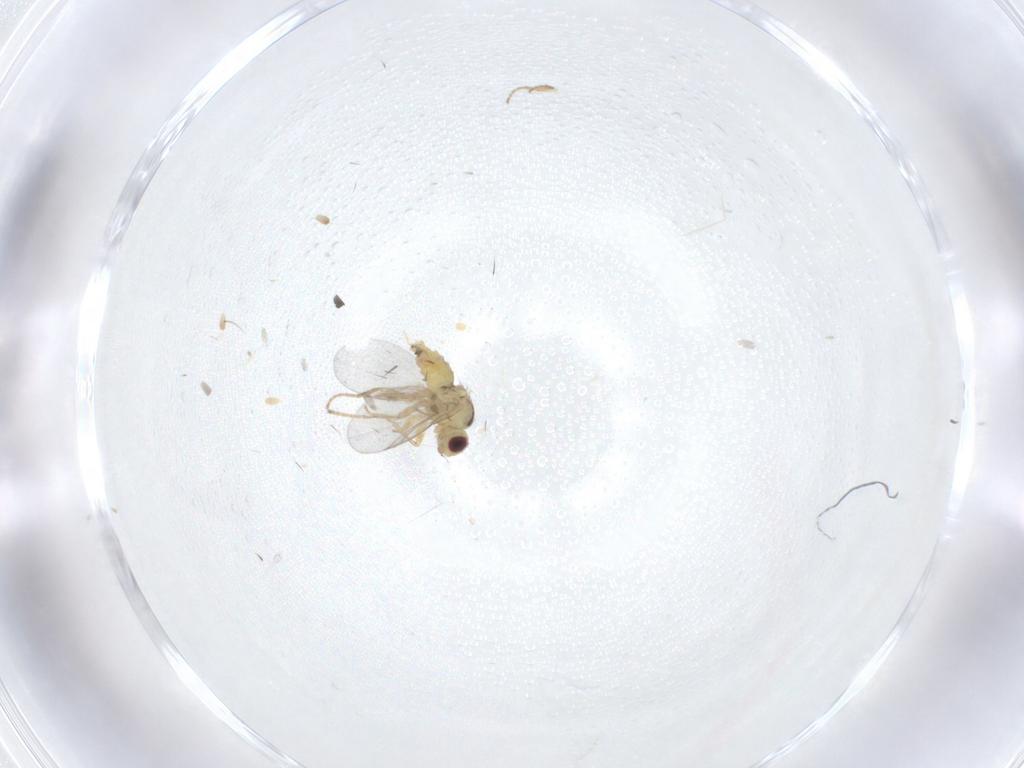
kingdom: Animalia
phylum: Arthropoda
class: Insecta
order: Diptera
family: Agromyzidae
